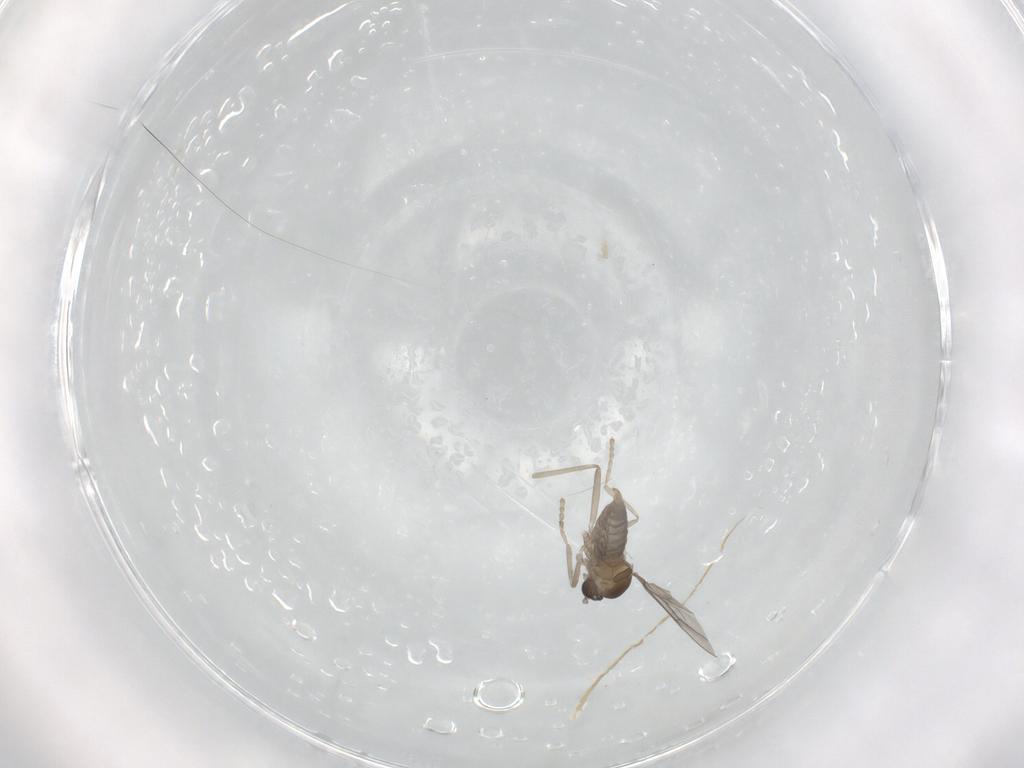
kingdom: Animalia
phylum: Arthropoda
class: Insecta
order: Diptera
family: Cecidomyiidae
